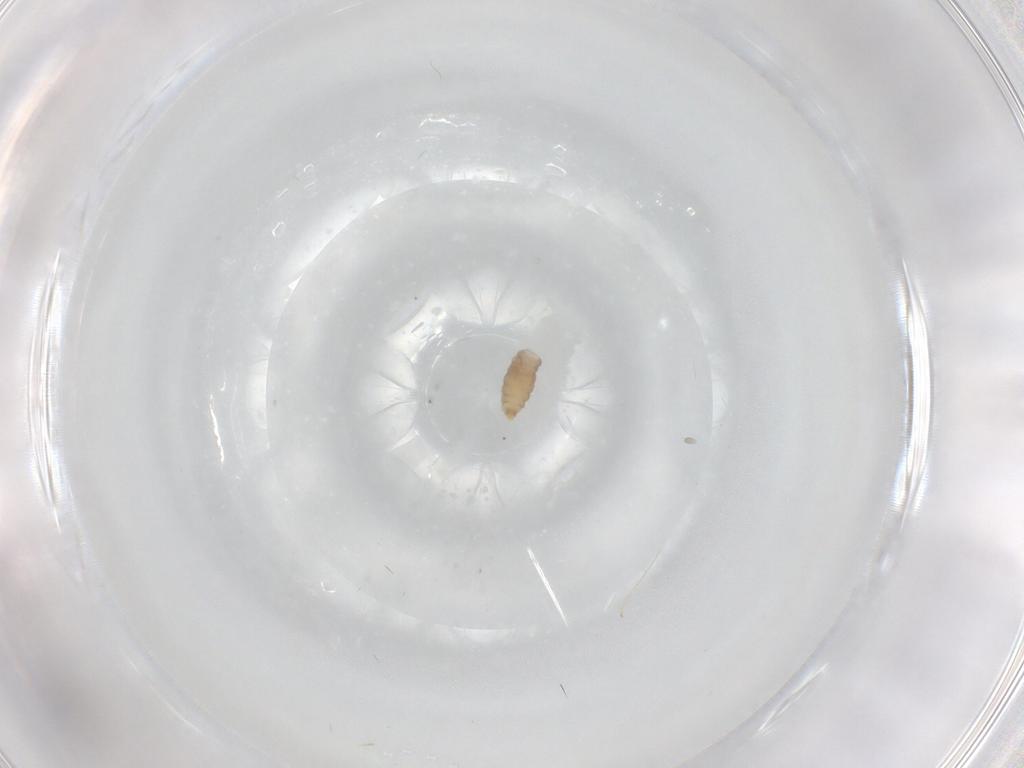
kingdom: Animalia
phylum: Arthropoda
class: Insecta
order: Diptera
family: Cecidomyiidae
